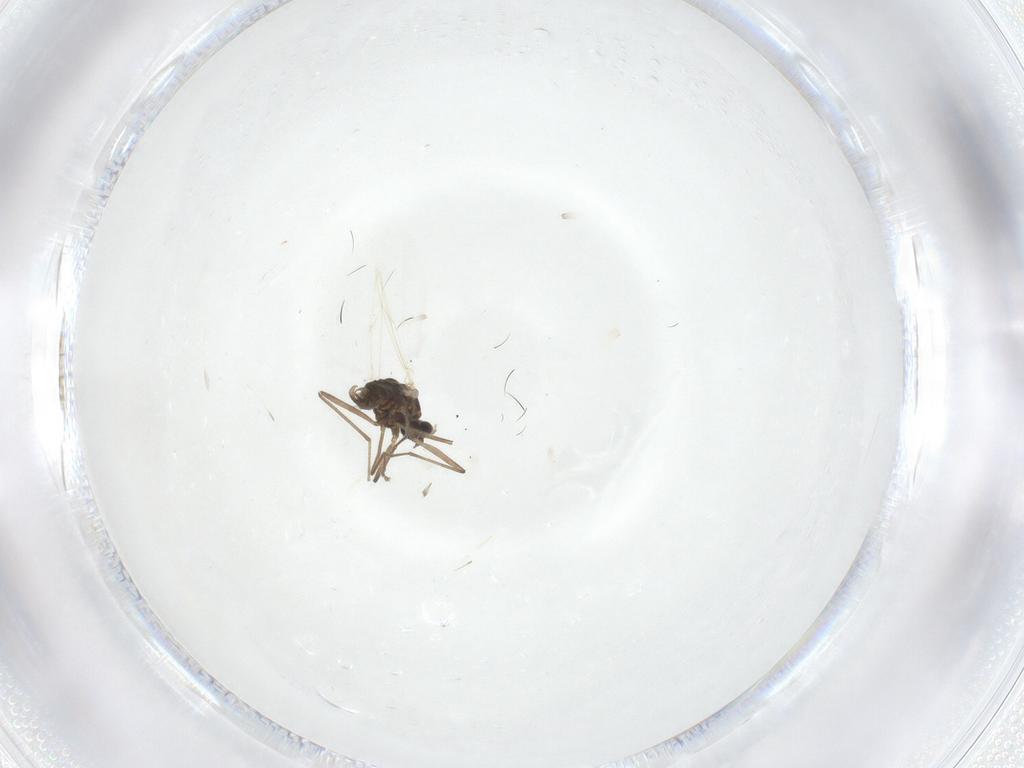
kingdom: Animalia
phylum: Arthropoda
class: Insecta
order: Diptera
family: Cecidomyiidae
